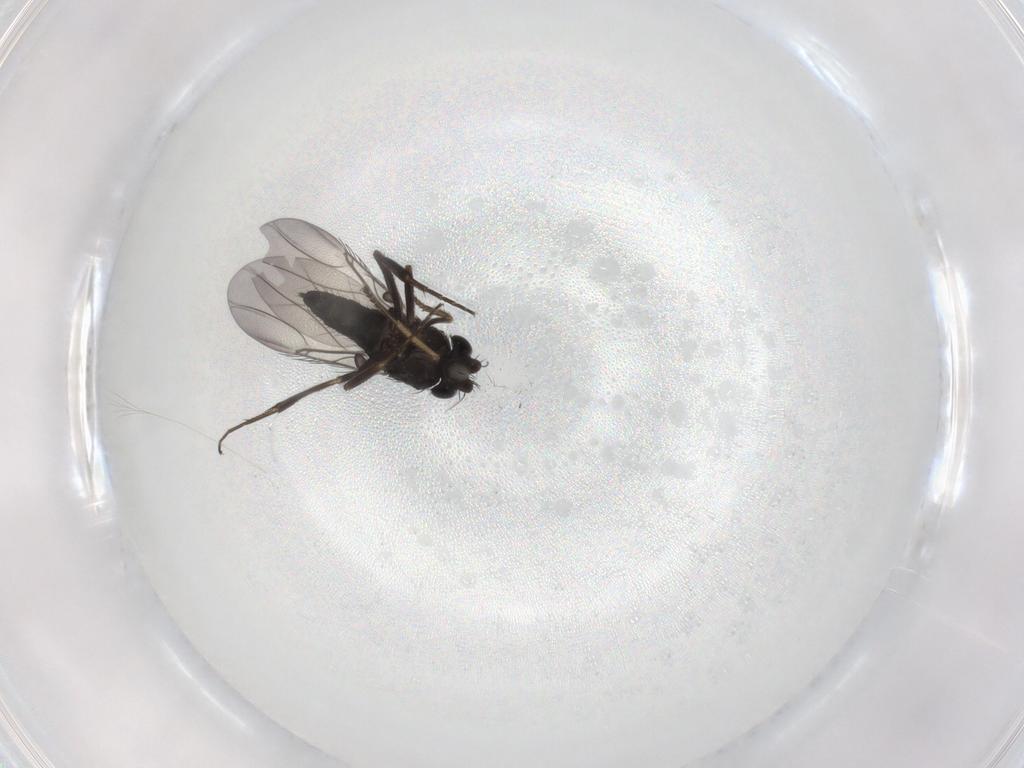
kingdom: Animalia
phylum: Arthropoda
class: Insecta
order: Diptera
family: Phoridae
